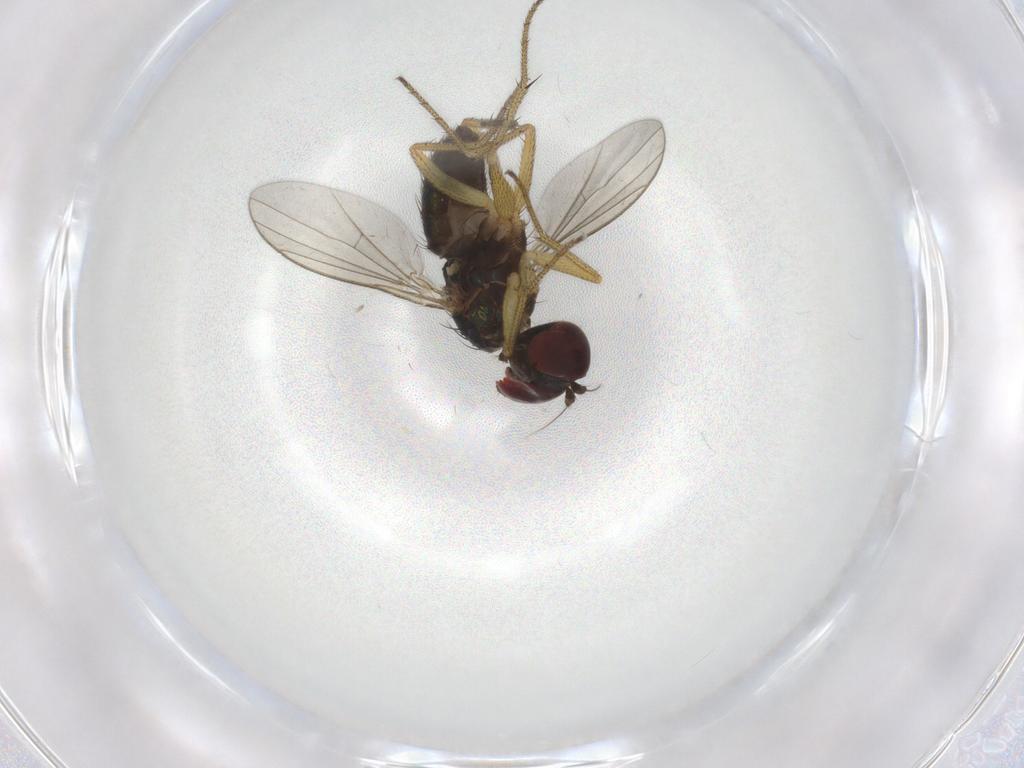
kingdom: Animalia
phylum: Arthropoda
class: Insecta
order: Diptera
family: Dolichopodidae
